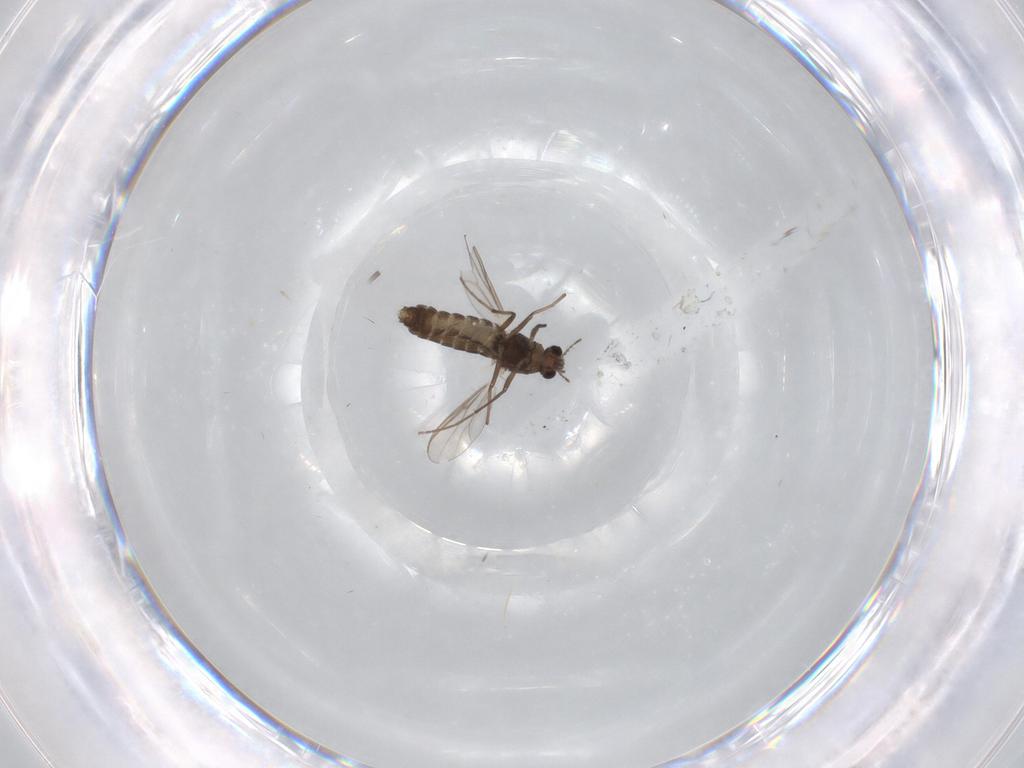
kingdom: Animalia
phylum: Arthropoda
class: Insecta
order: Diptera
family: Chironomidae
